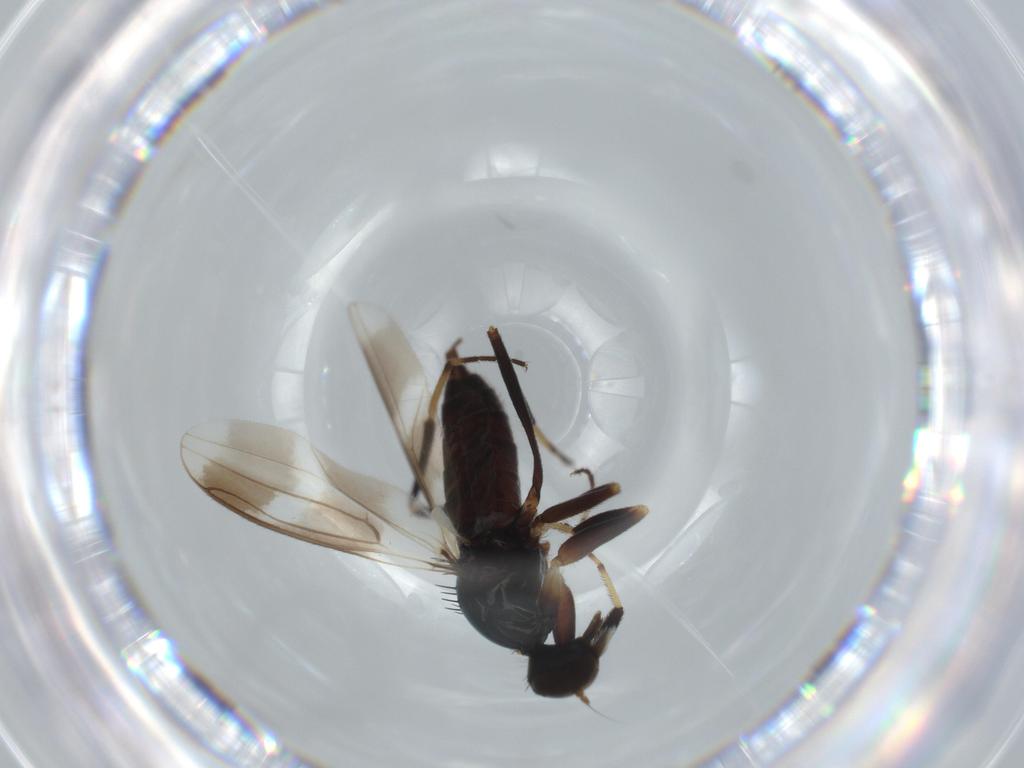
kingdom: Animalia
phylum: Arthropoda
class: Insecta
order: Diptera
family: Hybotidae
